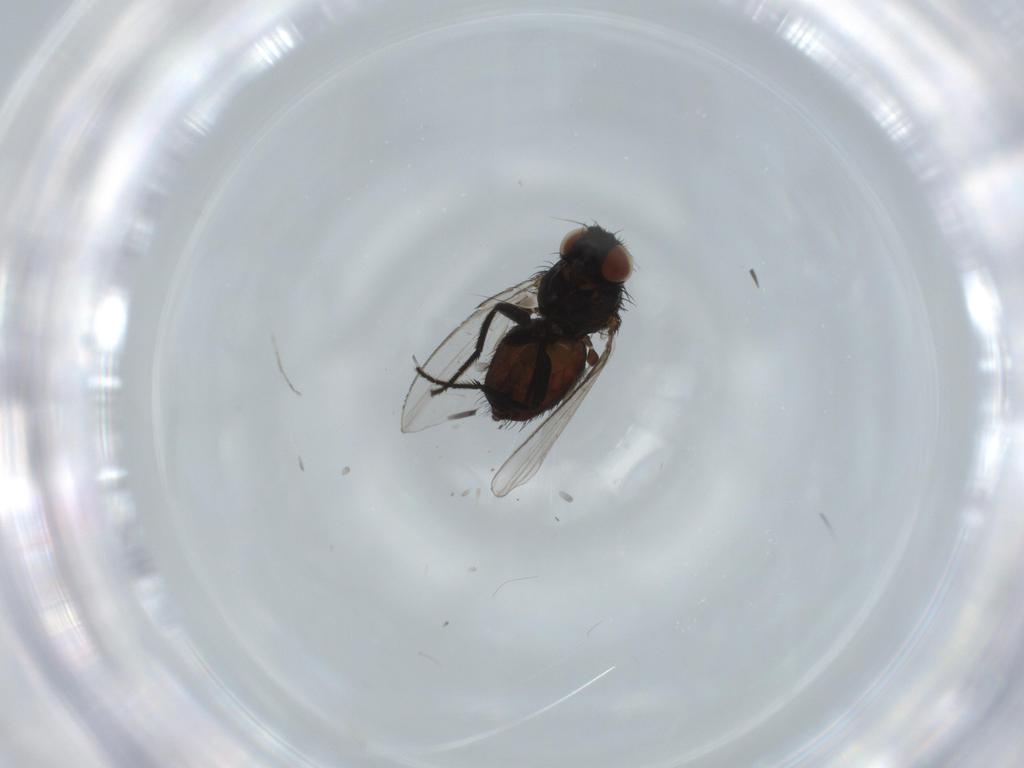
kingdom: Animalia
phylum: Arthropoda
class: Insecta
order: Diptera
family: Milichiidae
